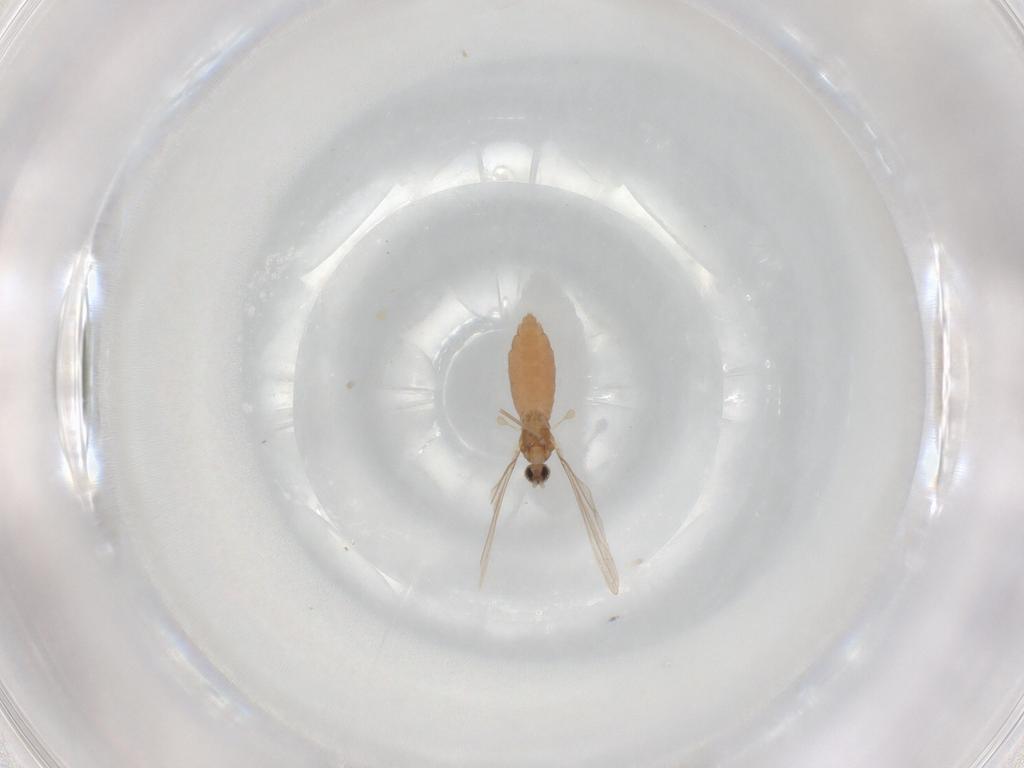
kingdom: Animalia
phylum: Arthropoda
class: Insecta
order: Diptera
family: Cecidomyiidae
